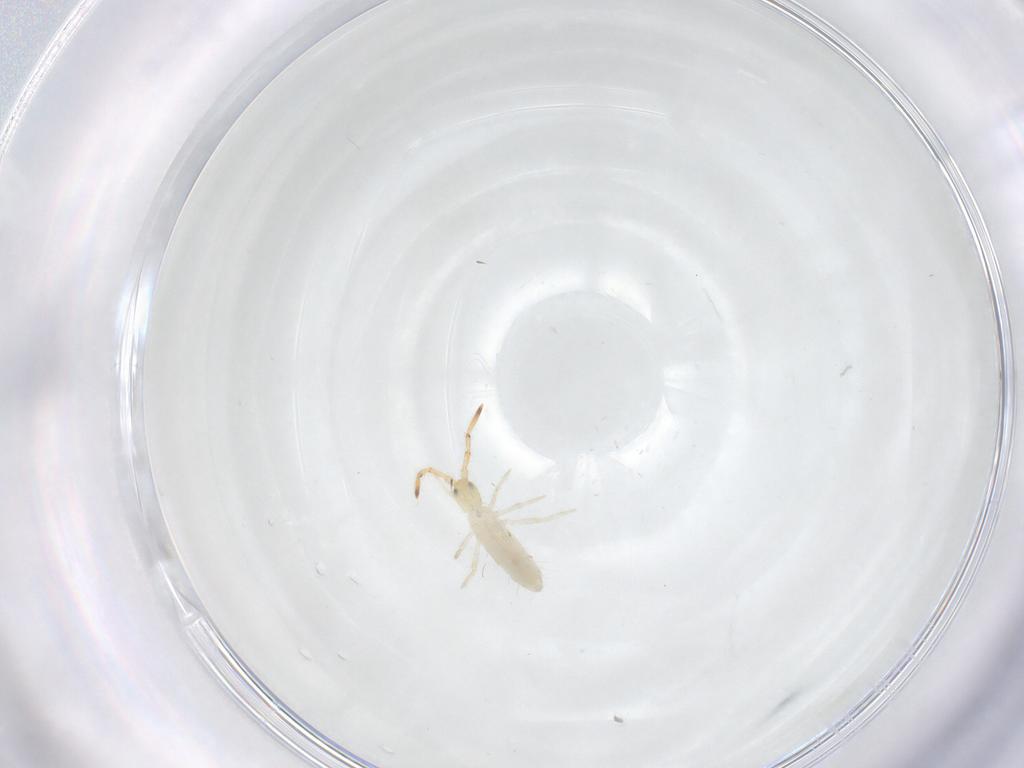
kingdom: Animalia
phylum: Arthropoda
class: Collembola
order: Entomobryomorpha
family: Entomobryidae
